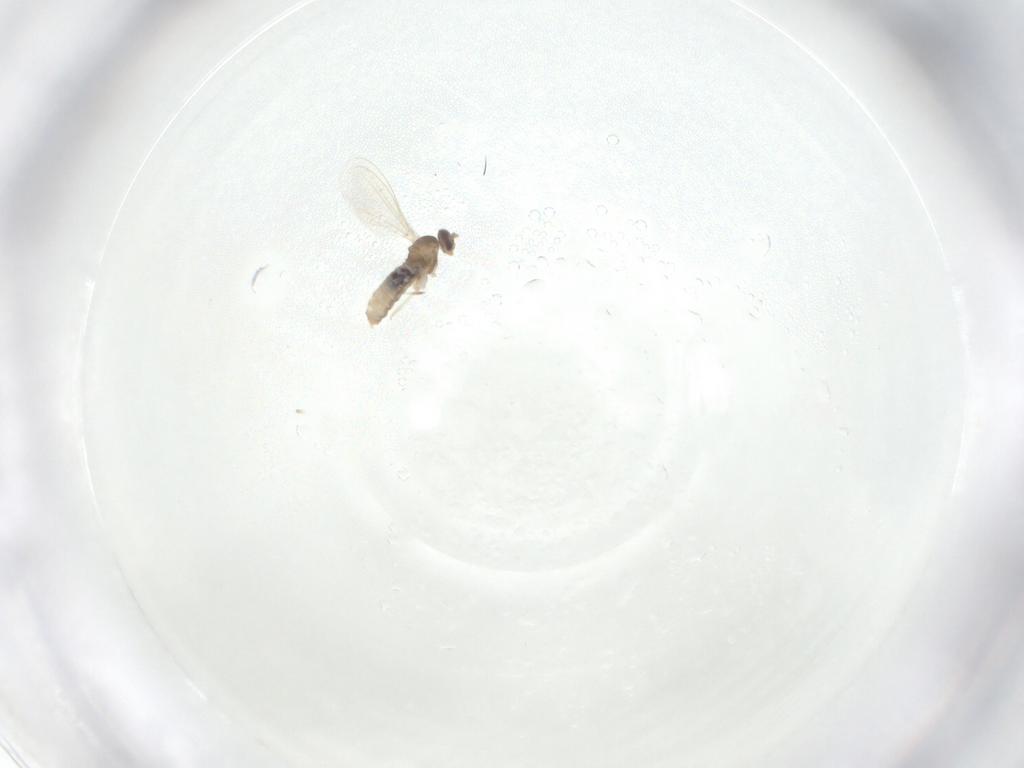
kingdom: Animalia
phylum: Arthropoda
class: Insecta
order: Diptera
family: Cecidomyiidae
